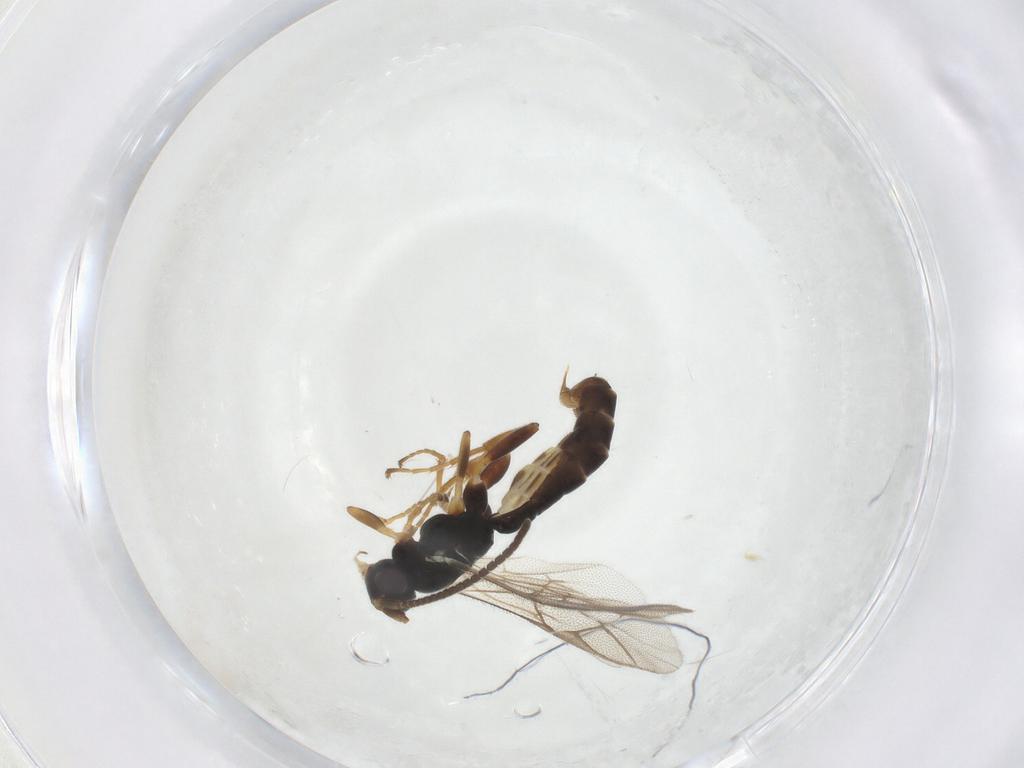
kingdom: Animalia
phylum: Arthropoda
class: Insecta
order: Hymenoptera
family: Ichneumonidae
